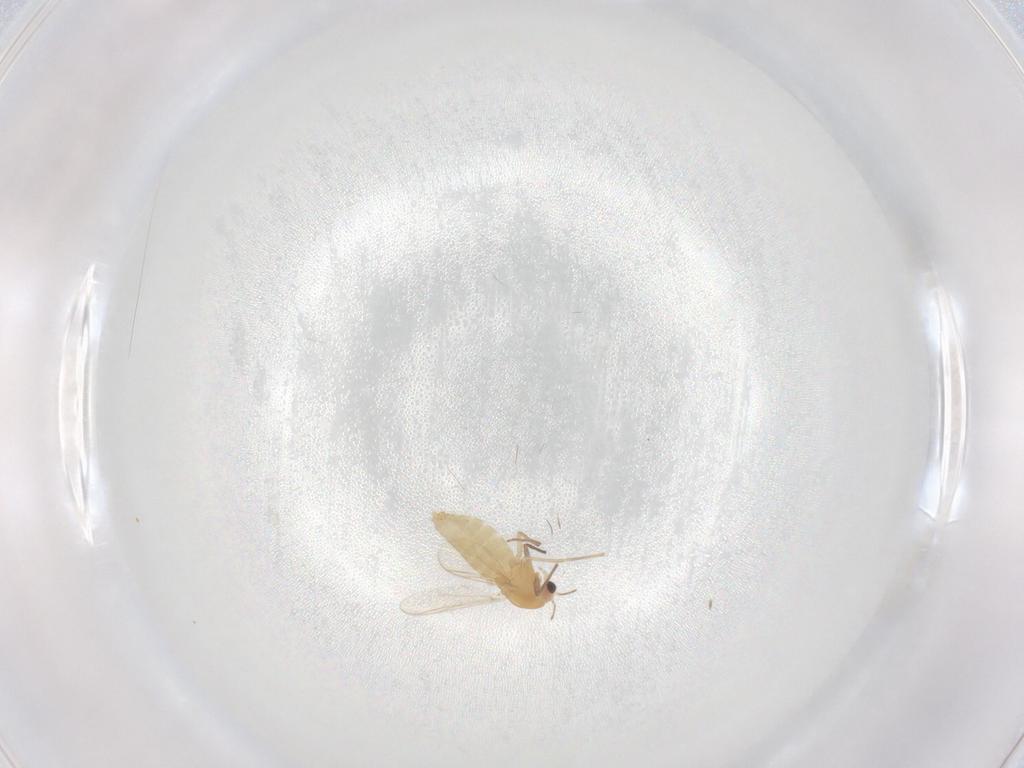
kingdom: Animalia
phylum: Arthropoda
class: Insecta
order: Diptera
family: Chironomidae
